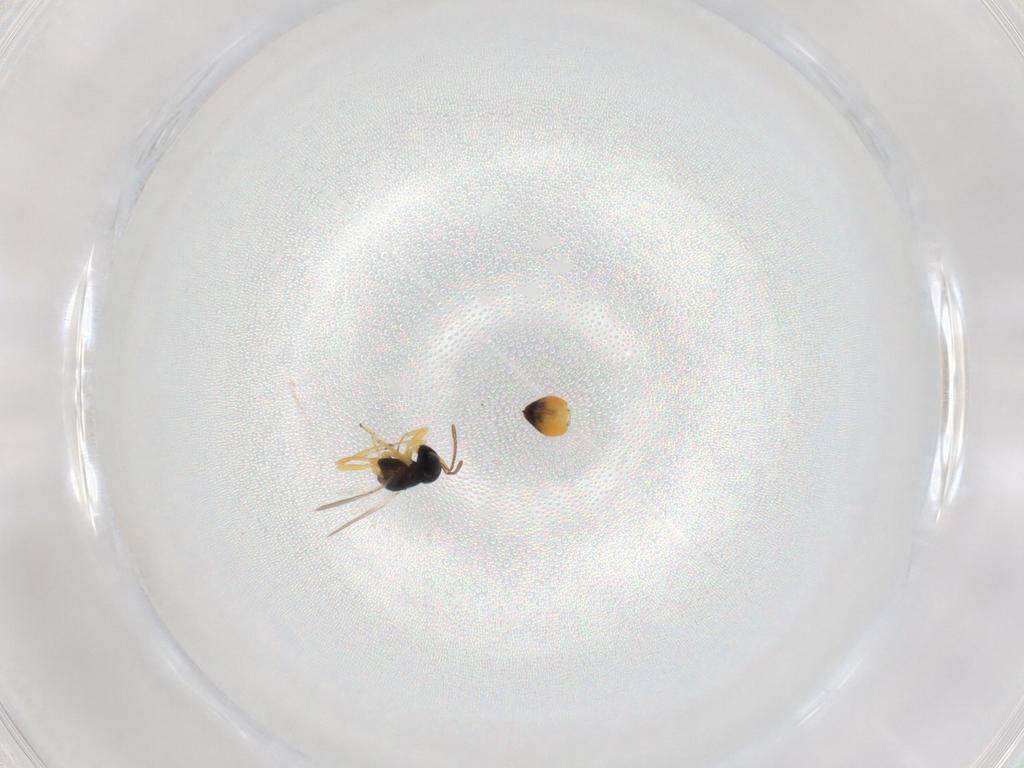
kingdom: Animalia
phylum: Arthropoda
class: Insecta
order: Hymenoptera
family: Encyrtidae
